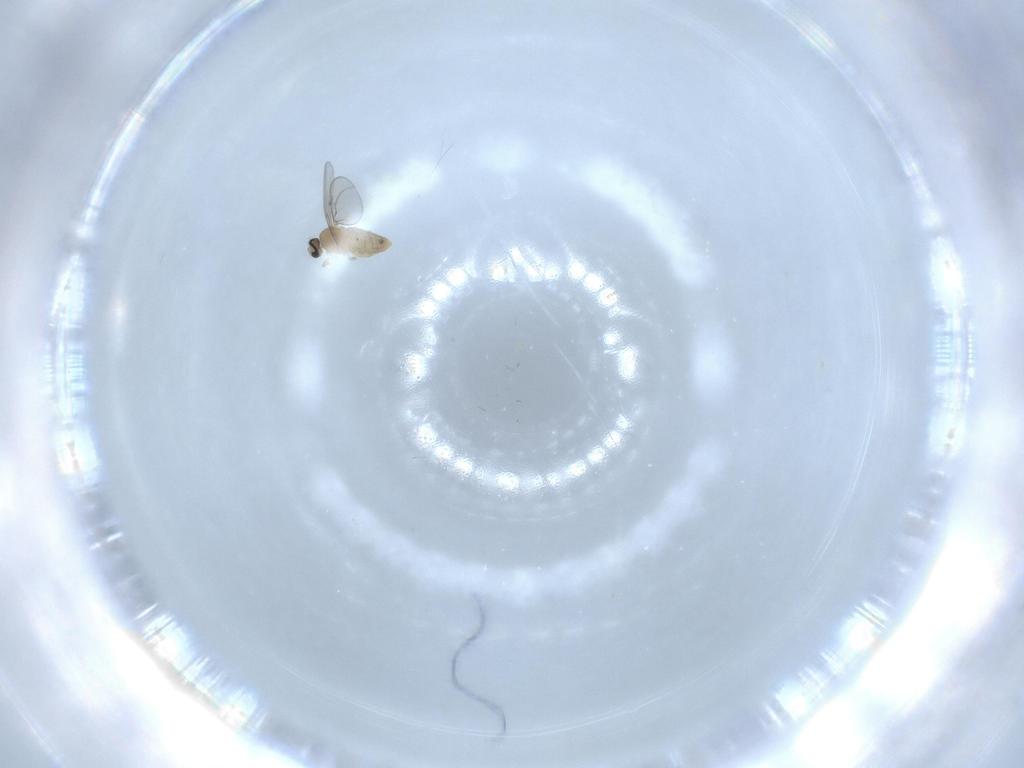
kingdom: Animalia
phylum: Arthropoda
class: Insecta
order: Diptera
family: Cecidomyiidae
